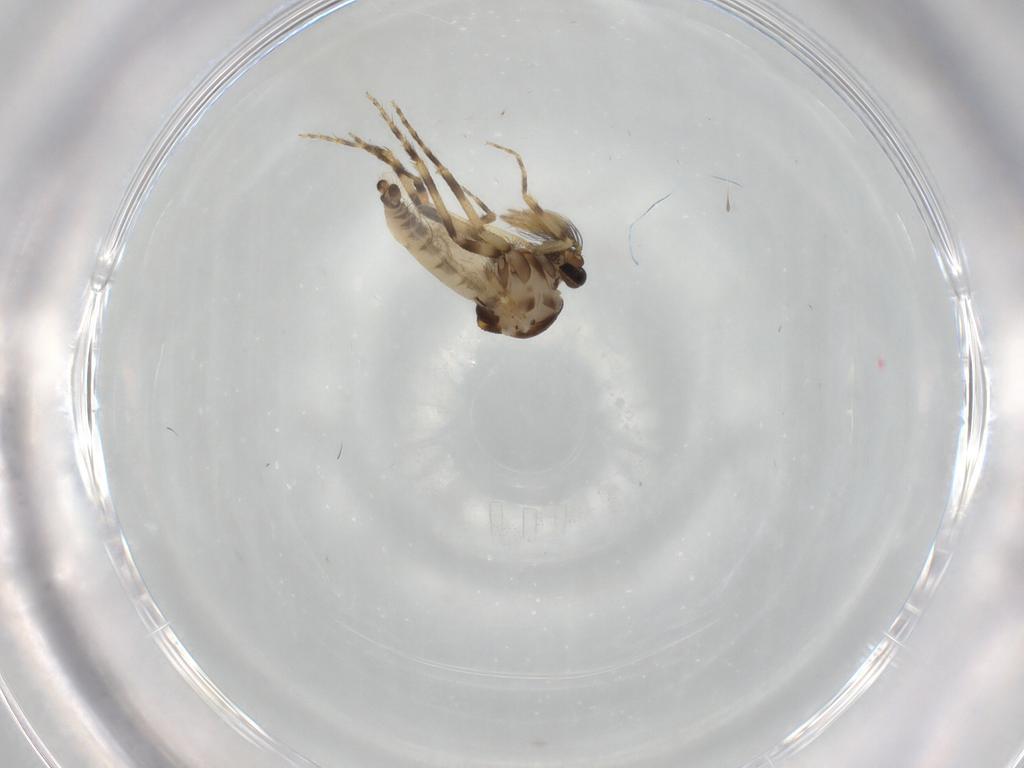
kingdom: Animalia
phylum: Arthropoda
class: Insecta
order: Diptera
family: Ceratopogonidae
